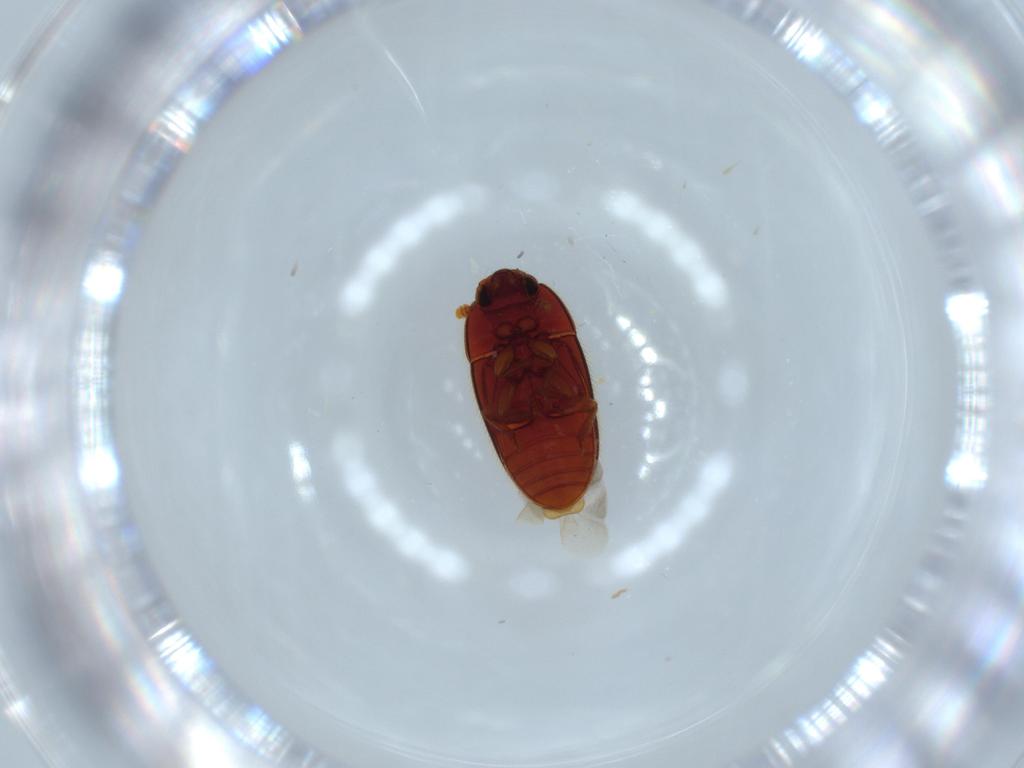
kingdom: Animalia
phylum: Arthropoda
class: Insecta
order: Coleoptera
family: Biphyllidae
